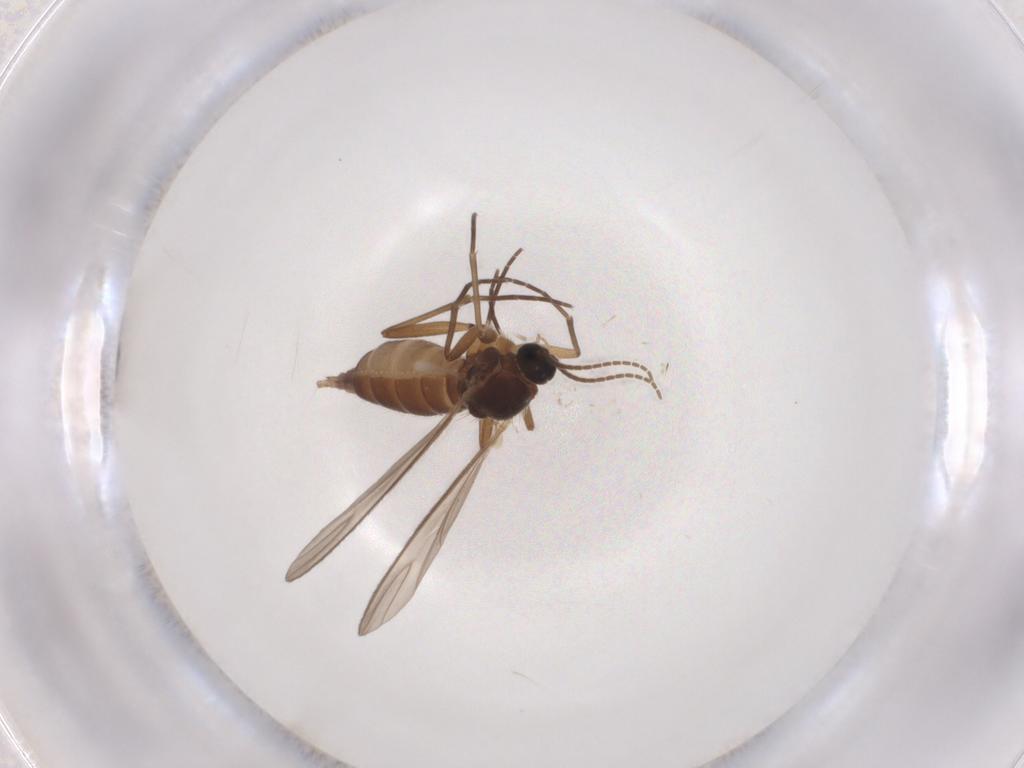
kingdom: Animalia
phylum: Arthropoda
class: Insecta
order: Diptera
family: Sciaridae
